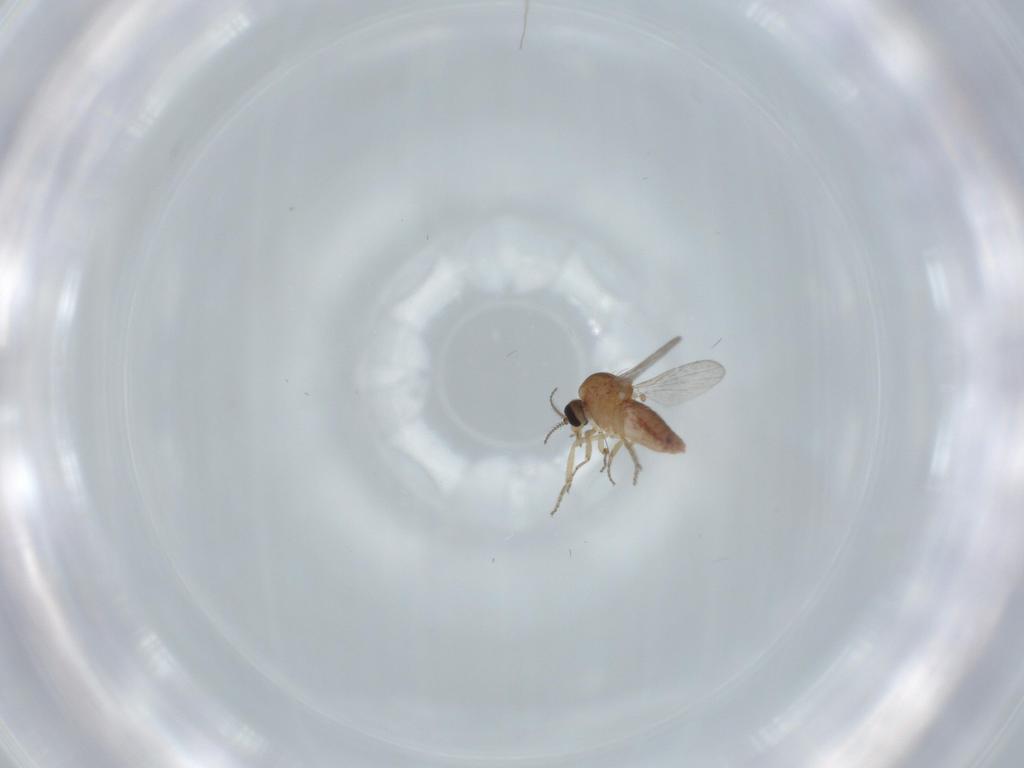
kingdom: Animalia
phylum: Arthropoda
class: Insecta
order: Diptera
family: Ceratopogonidae
